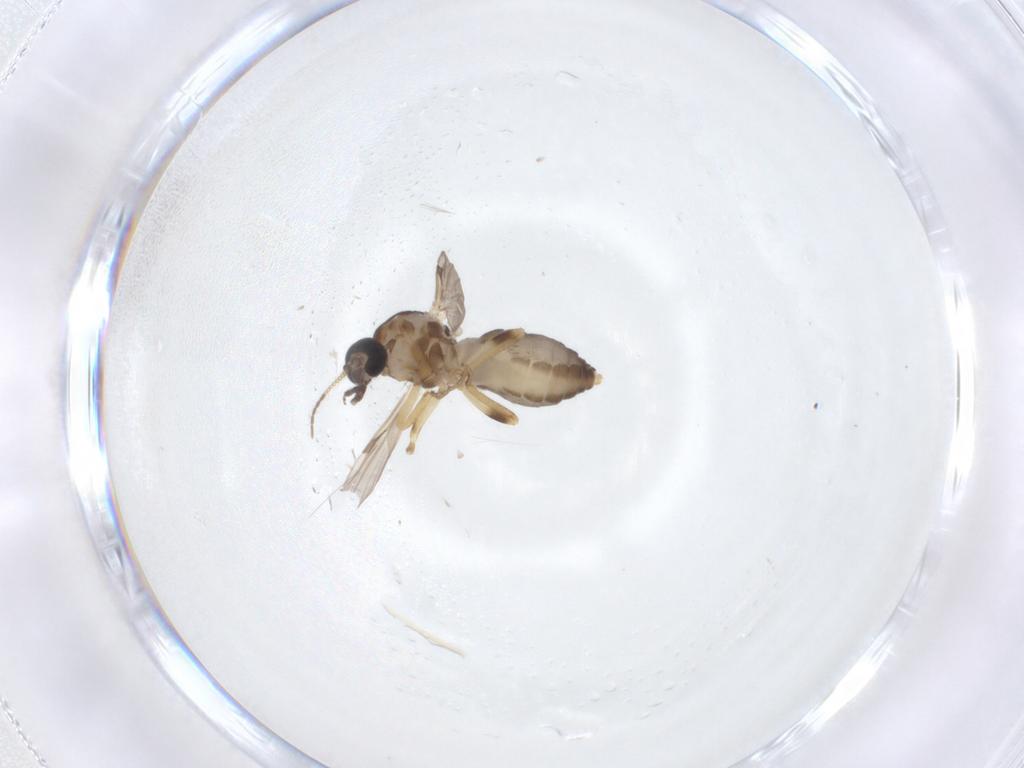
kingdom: Animalia
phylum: Arthropoda
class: Insecta
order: Diptera
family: Ceratopogonidae
